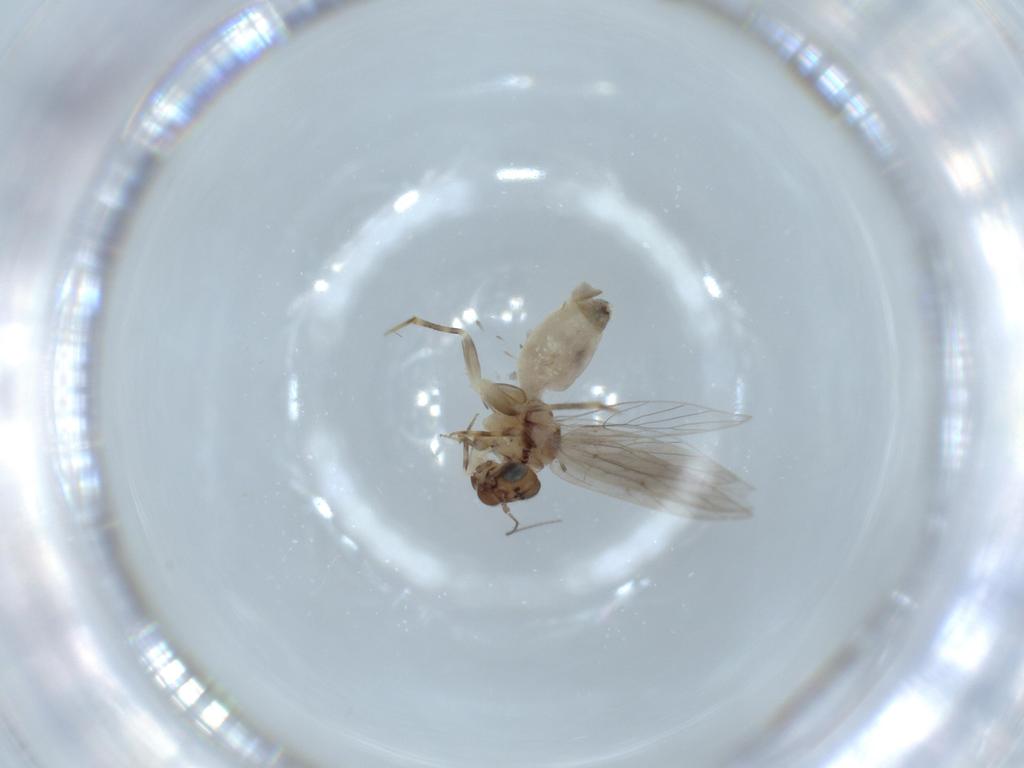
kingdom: Animalia
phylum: Arthropoda
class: Insecta
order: Psocodea
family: Lepidopsocidae
